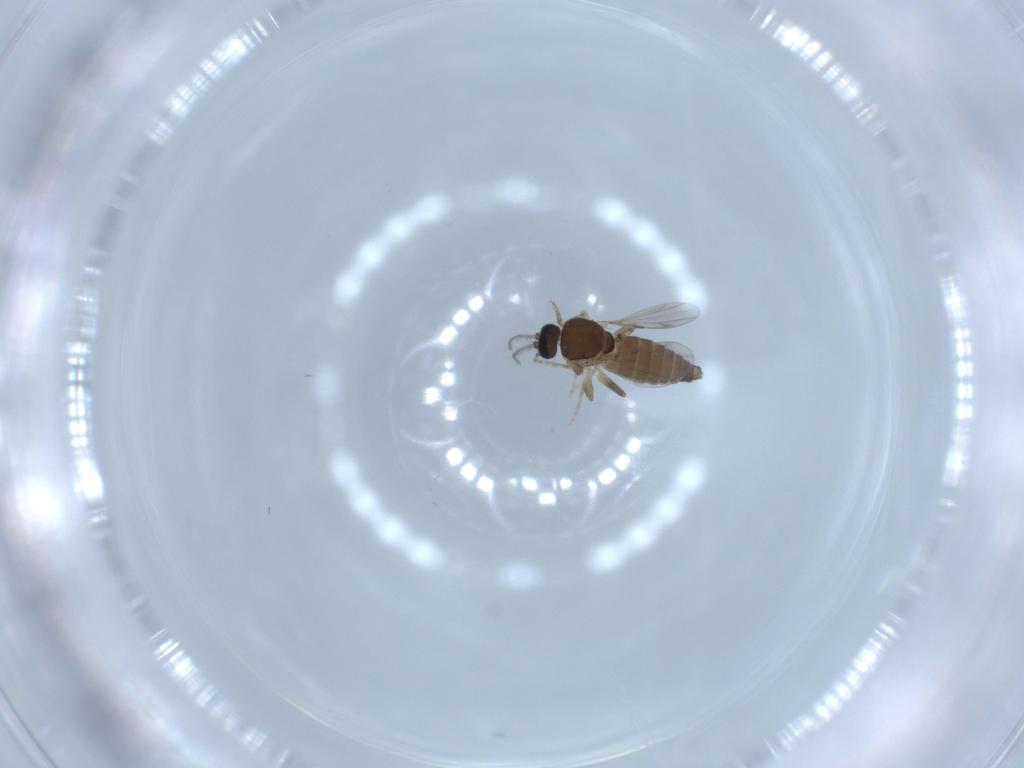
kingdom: Animalia
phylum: Arthropoda
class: Insecta
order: Diptera
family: Ceratopogonidae
